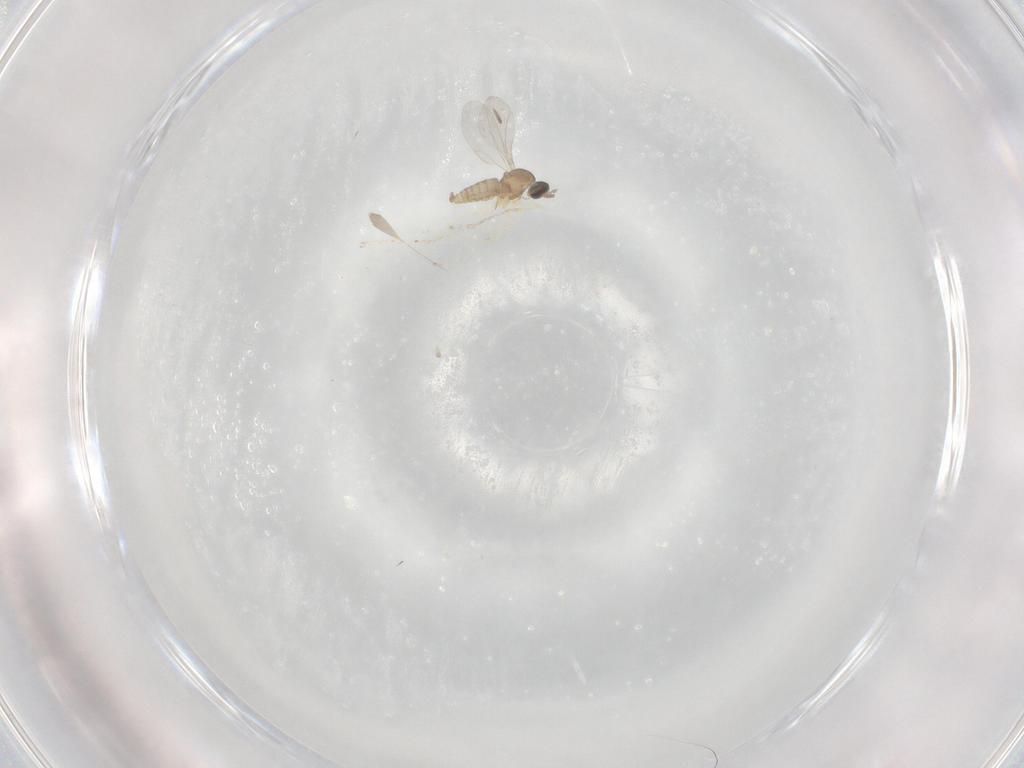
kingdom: Animalia
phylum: Arthropoda
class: Insecta
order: Diptera
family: Cecidomyiidae
